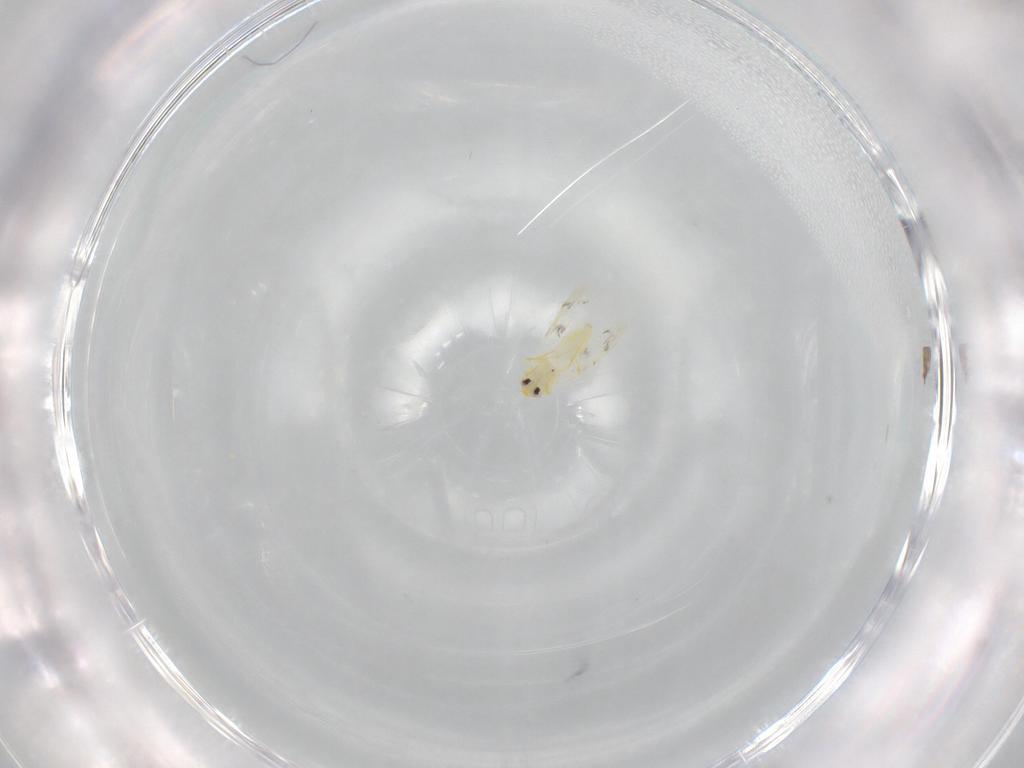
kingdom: Animalia
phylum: Arthropoda
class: Insecta
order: Hemiptera
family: Aleyrodidae
